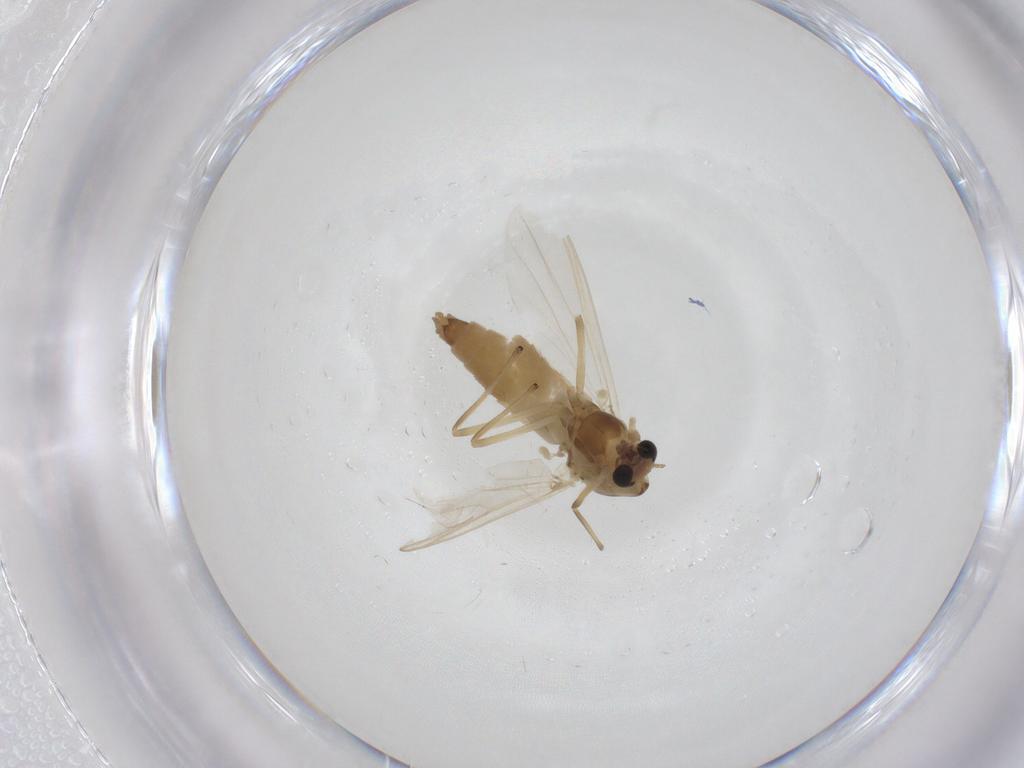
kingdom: Animalia
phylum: Arthropoda
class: Insecta
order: Diptera
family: Chironomidae
